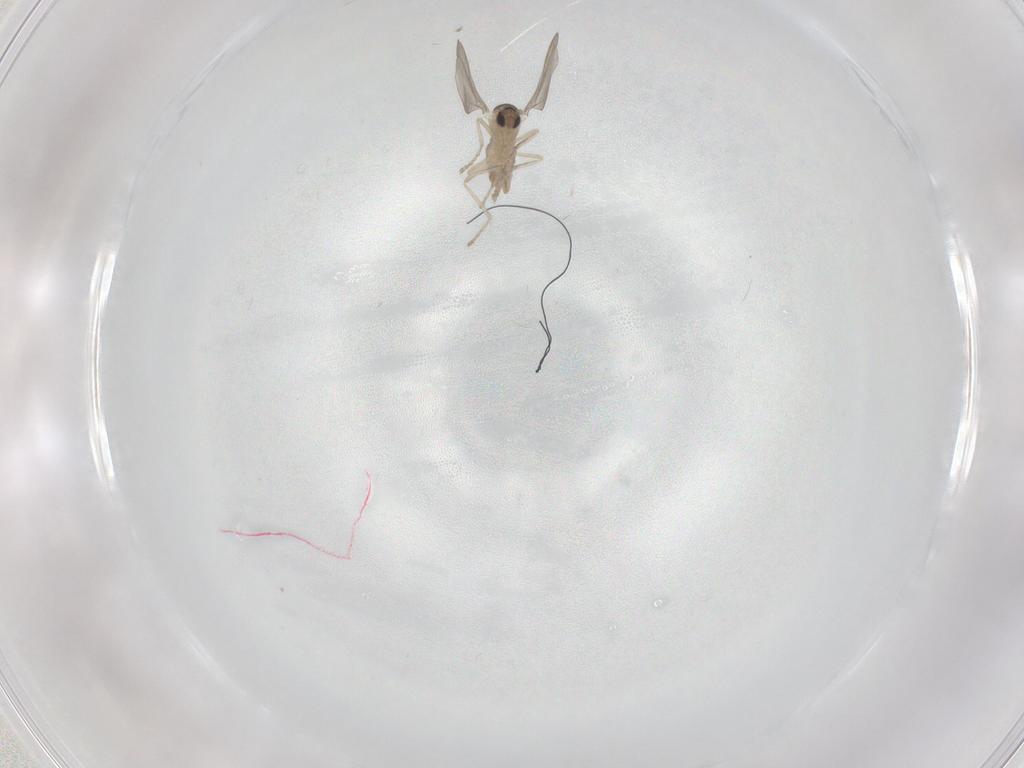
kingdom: Animalia
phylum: Arthropoda
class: Insecta
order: Diptera
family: Cecidomyiidae
